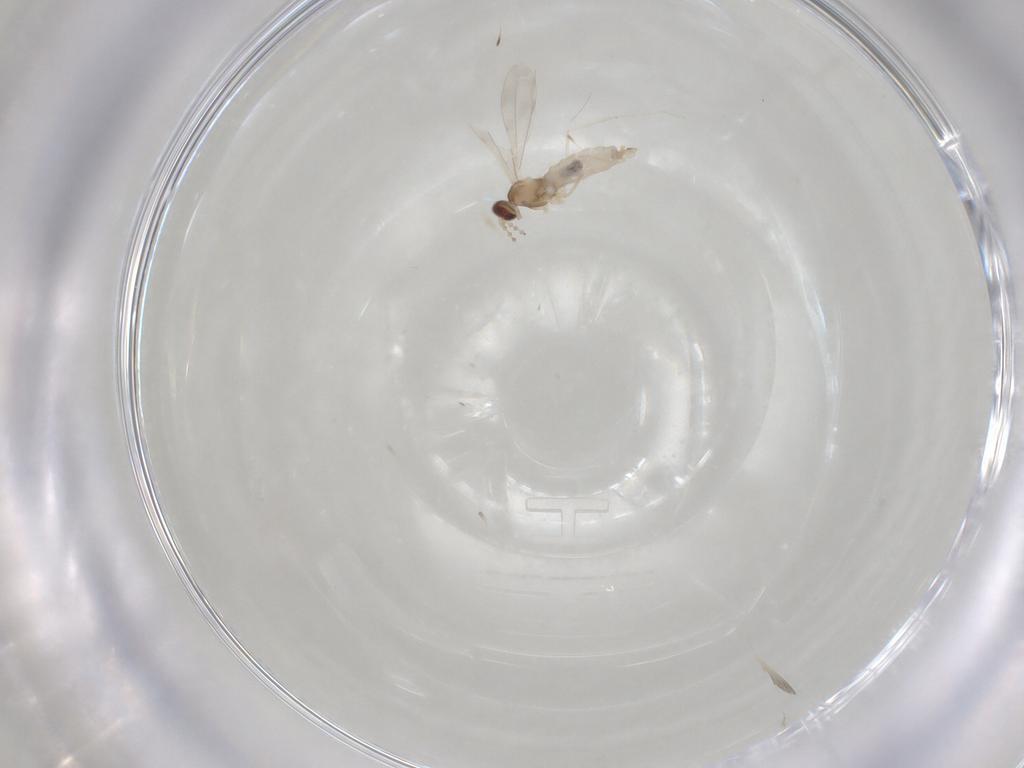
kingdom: Animalia
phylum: Arthropoda
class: Insecta
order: Diptera
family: Cecidomyiidae
